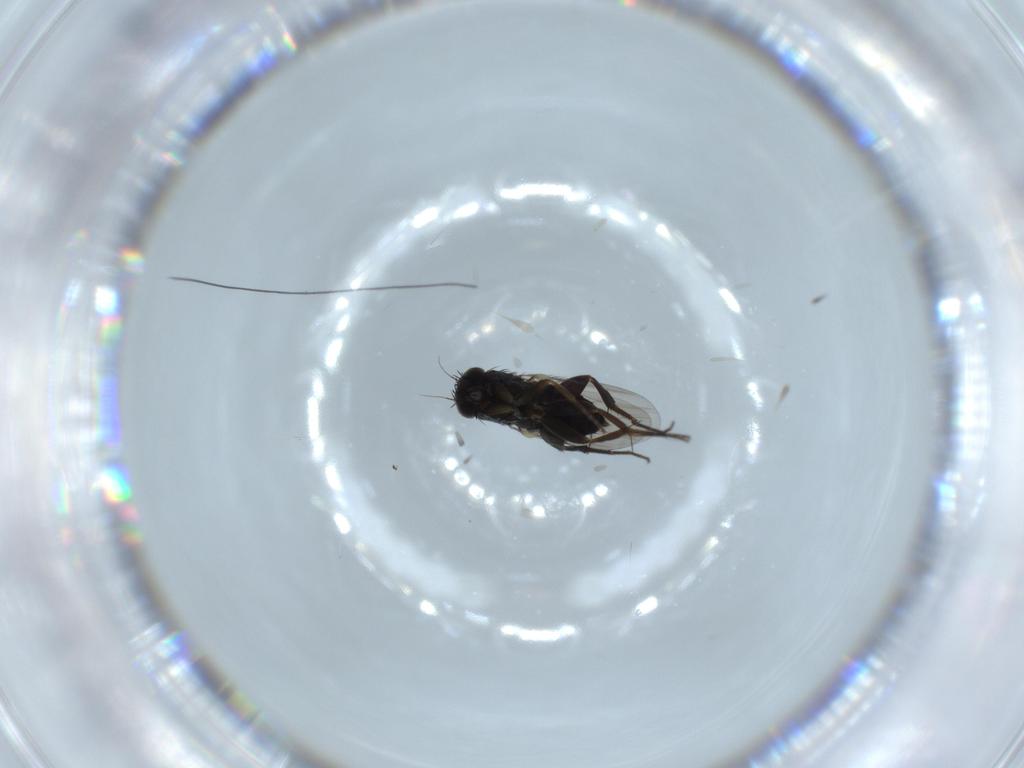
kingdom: Animalia
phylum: Arthropoda
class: Insecta
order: Diptera
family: Phoridae
